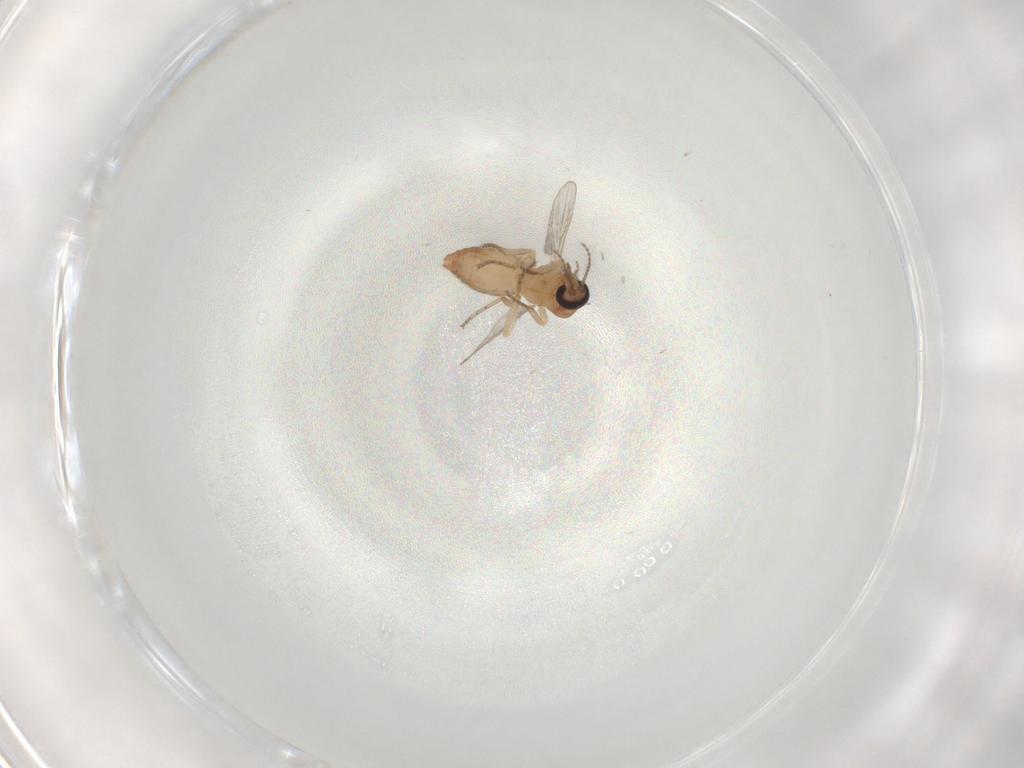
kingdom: Animalia
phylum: Arthropoda
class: Insecta
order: Diptera
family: Ceratopogonidae
